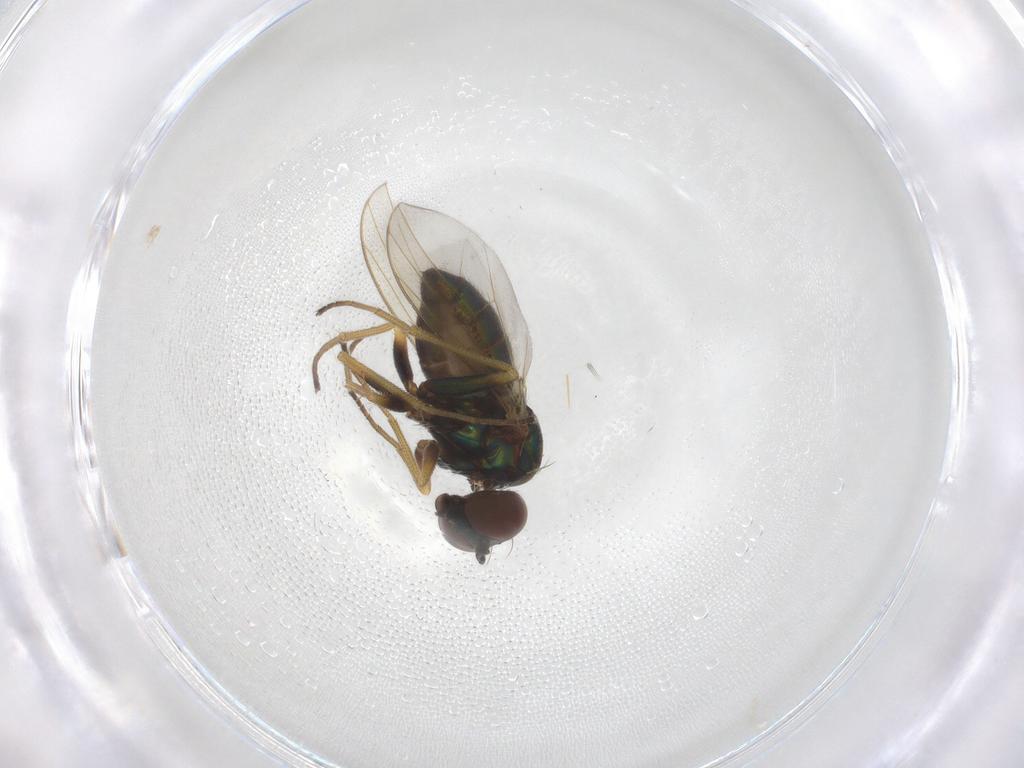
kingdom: Animalia
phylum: Arthropoda
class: Insecta
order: Diptera
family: Dolichopodidae
